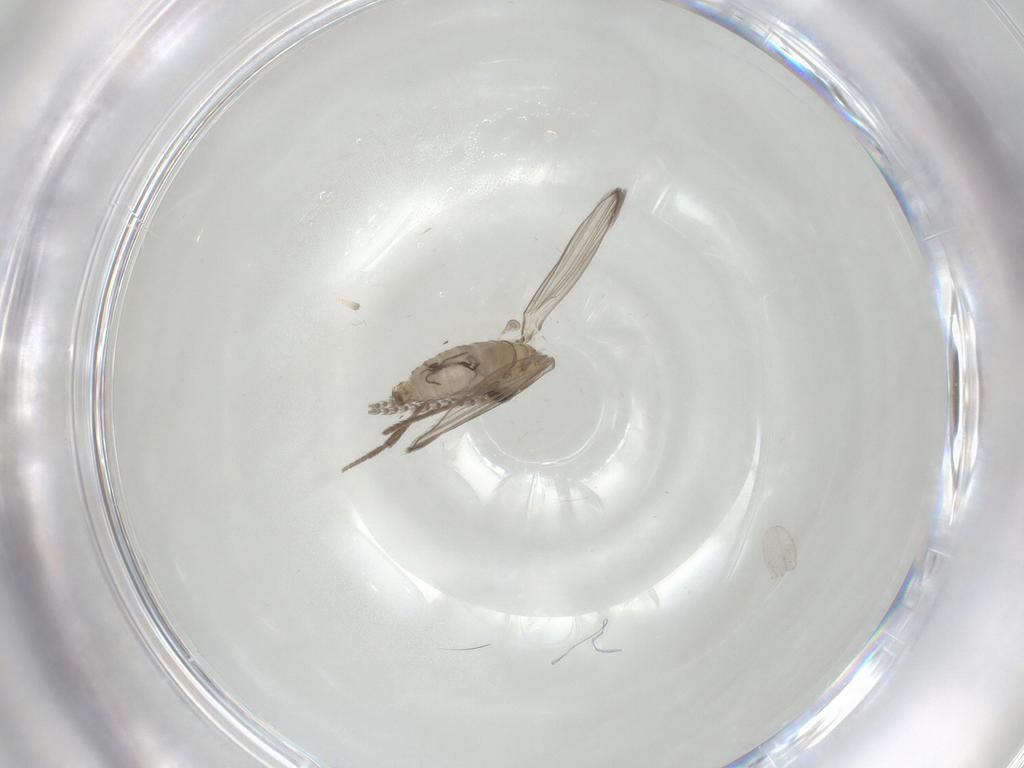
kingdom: Animalia
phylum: Arthropoda
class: Insecta
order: Diptera
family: Psychodidae
